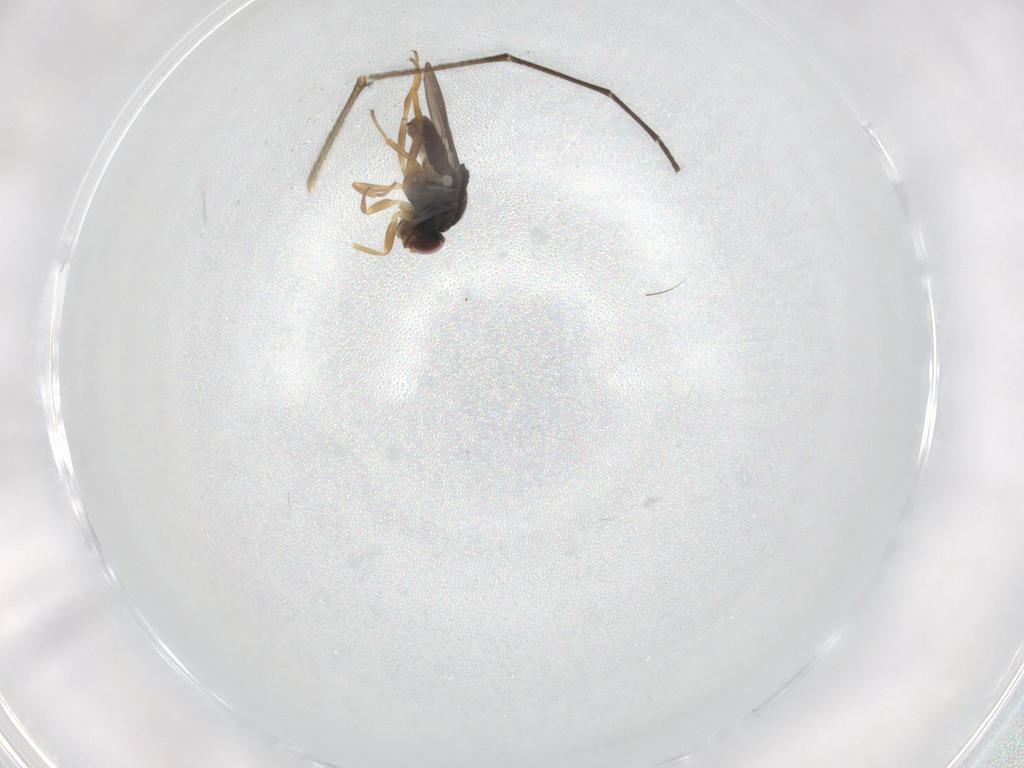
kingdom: Animalia
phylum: Arthropoda
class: Insecta
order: Diptera
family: Chloropidae
